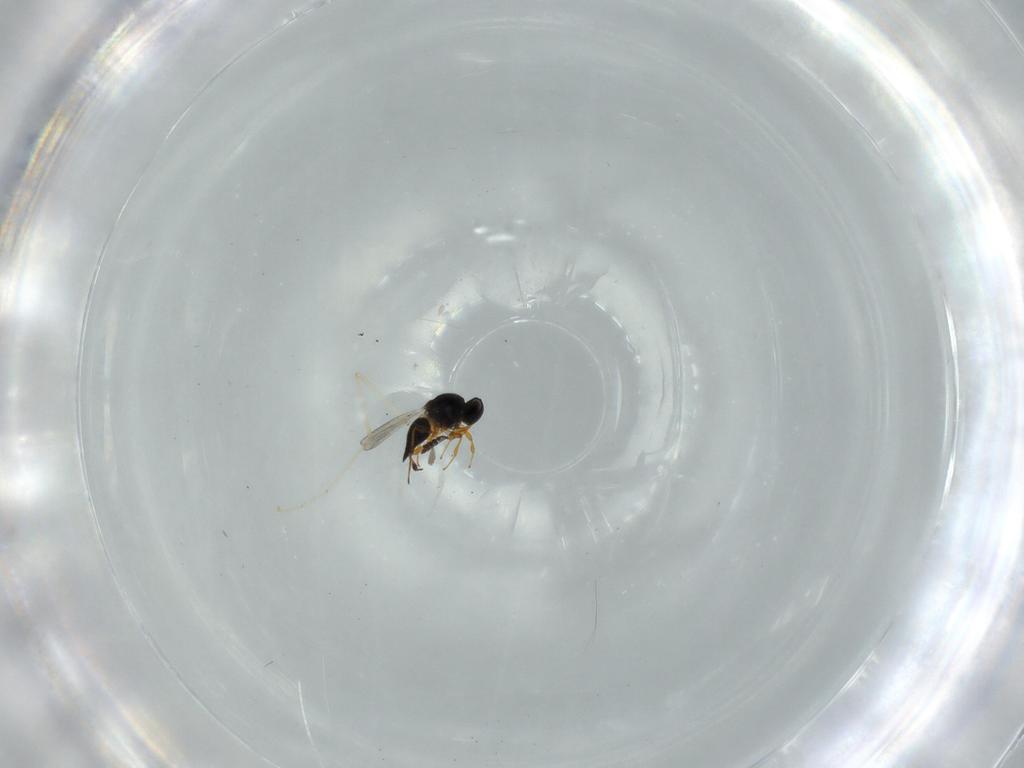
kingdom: Animalia
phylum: Arthropoda
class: Insecta
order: Hymenoptera
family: Platygastridae
